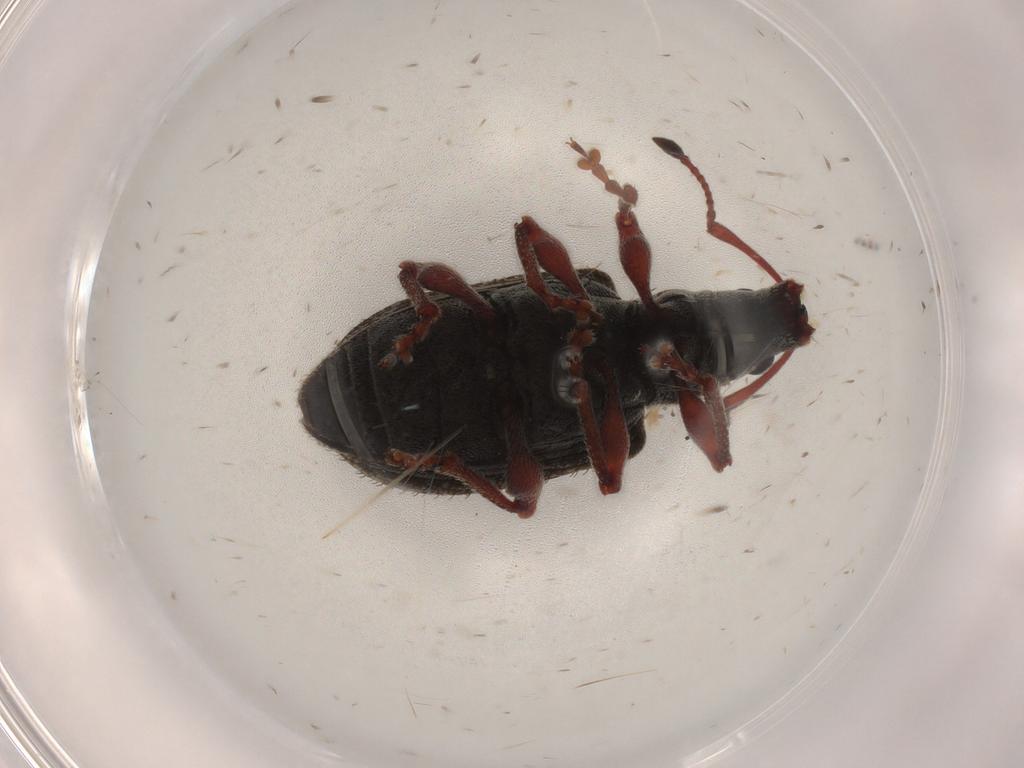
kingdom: Animalia
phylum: Arthropoda
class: Insecta
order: Coleoptera
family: Curculionidae
